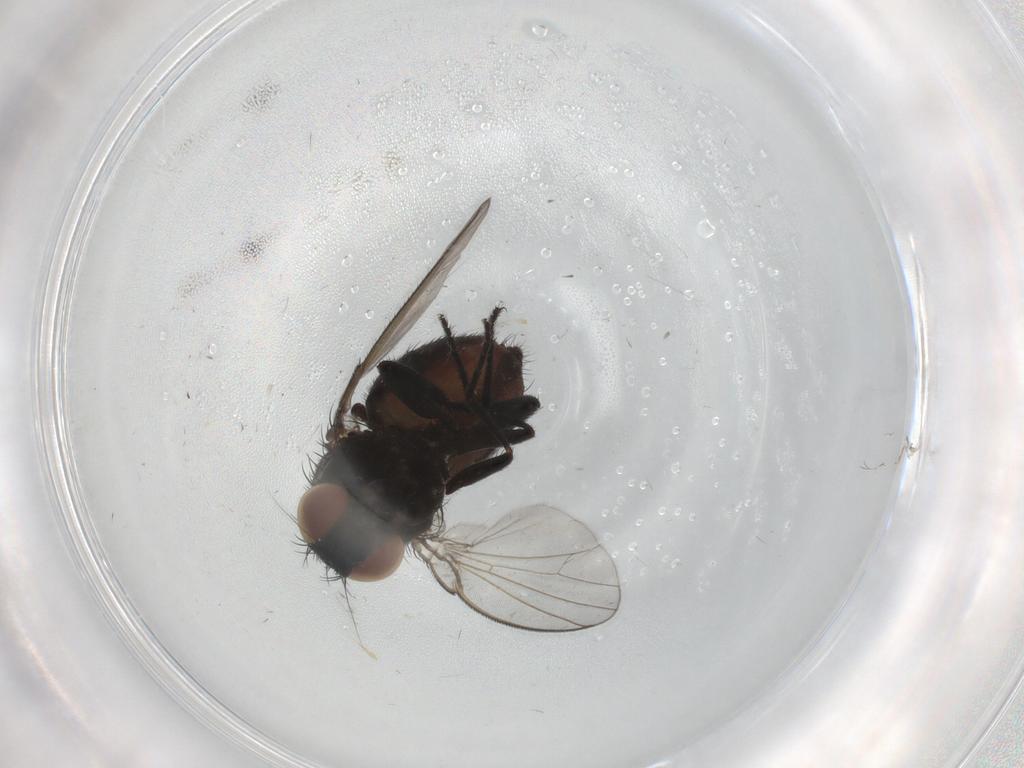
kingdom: Animalia
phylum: Arthropoda
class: Insecta
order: Diptera
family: Milichiidae
